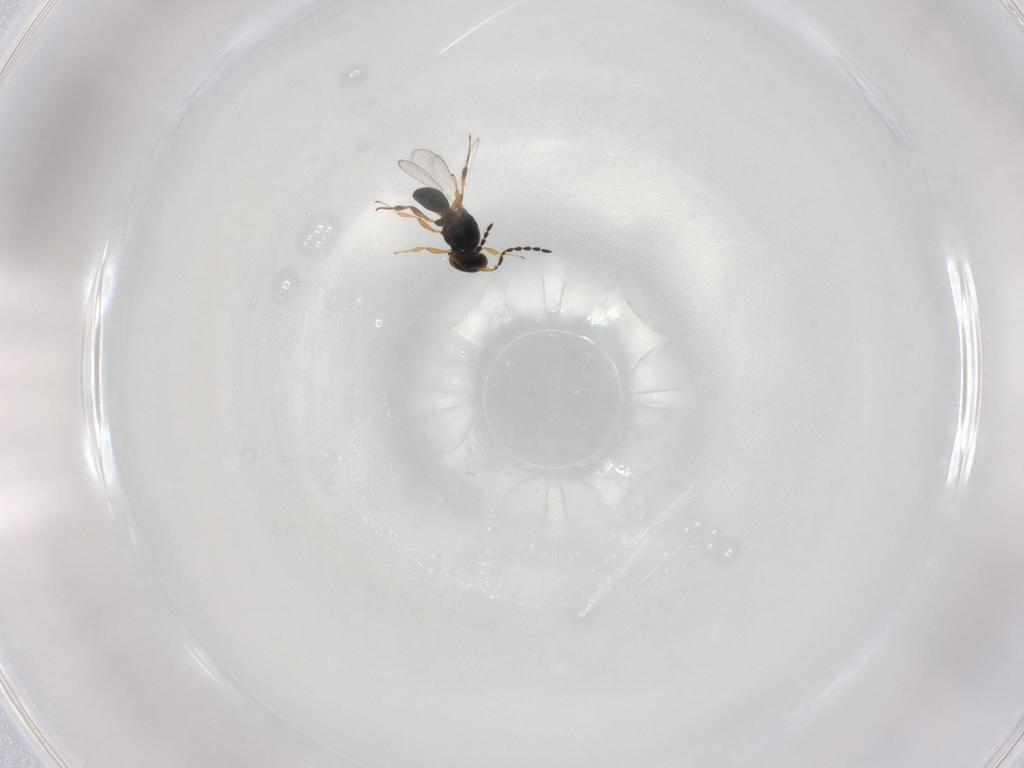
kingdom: Animalia
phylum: Arthropoda
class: Insecta
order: Hymenoptera
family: Platygastridae
